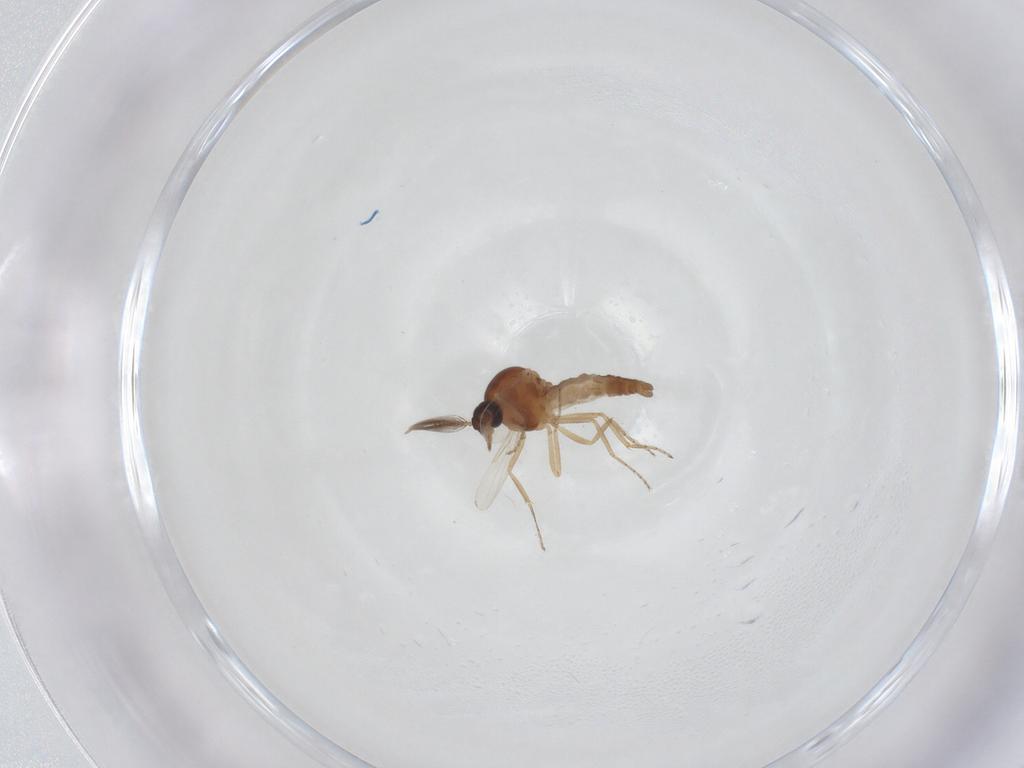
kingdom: Animalia
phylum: Arthropoda
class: Insecta
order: Diptera
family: Ceratopogonidae
